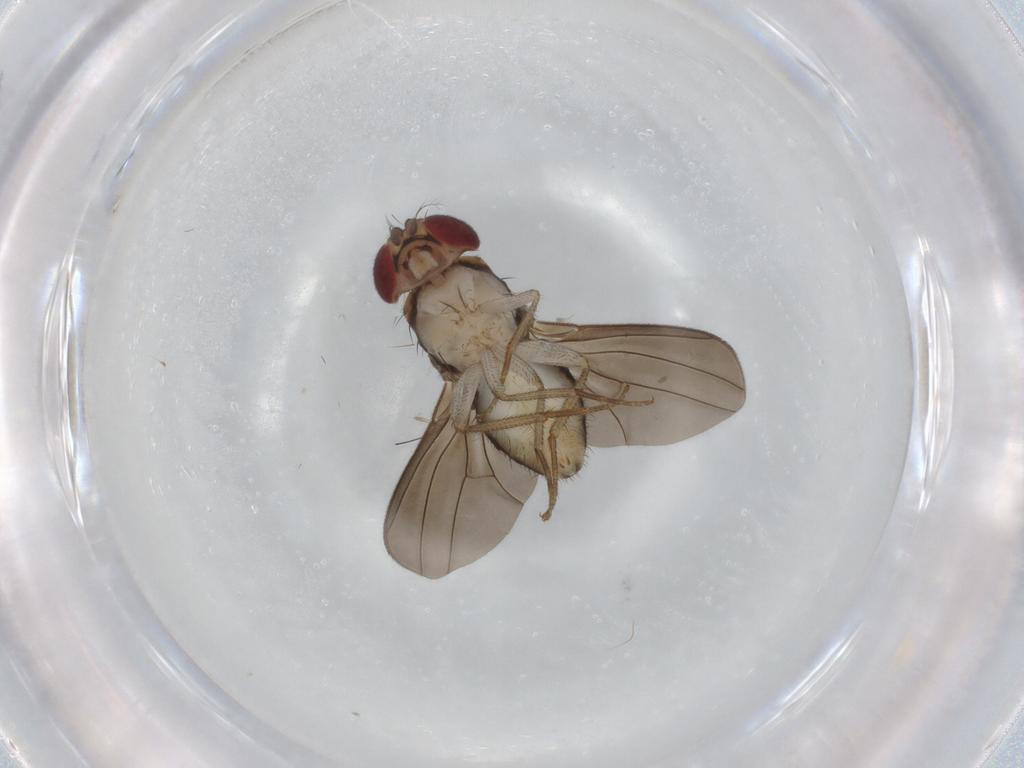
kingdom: Animalia
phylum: Arthropoda
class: Insecta
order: Diptera
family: Drosophilidae
